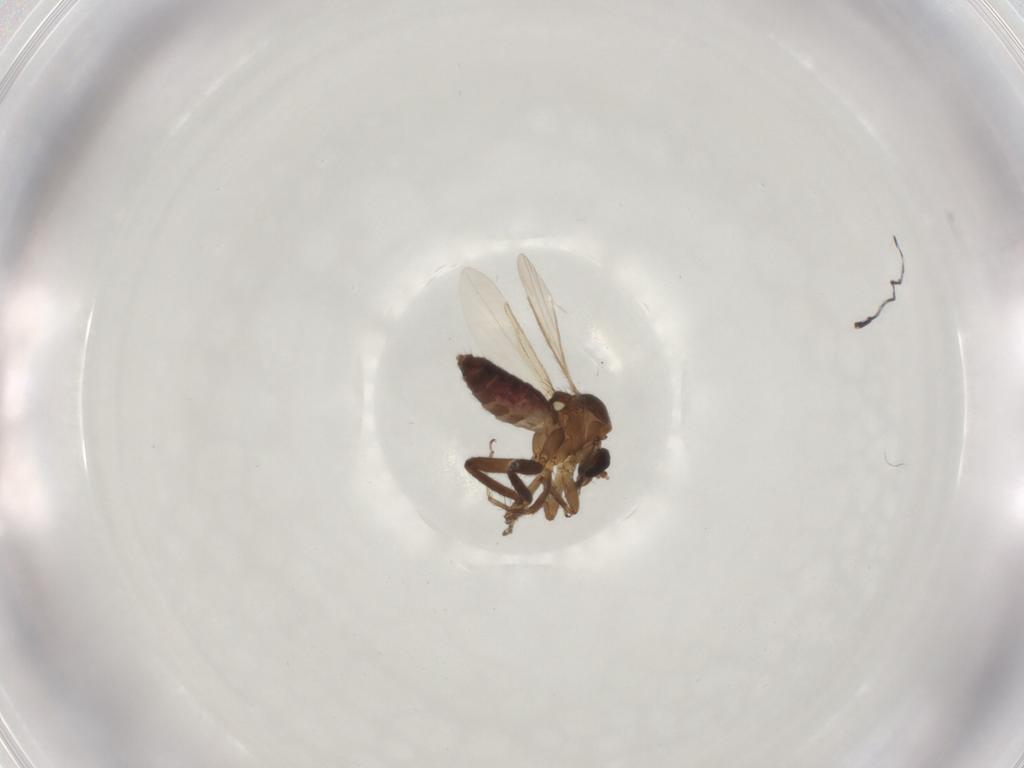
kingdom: Animalia
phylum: Arthropoda
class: Insecta
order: Diptera
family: Ceratopogonidae
